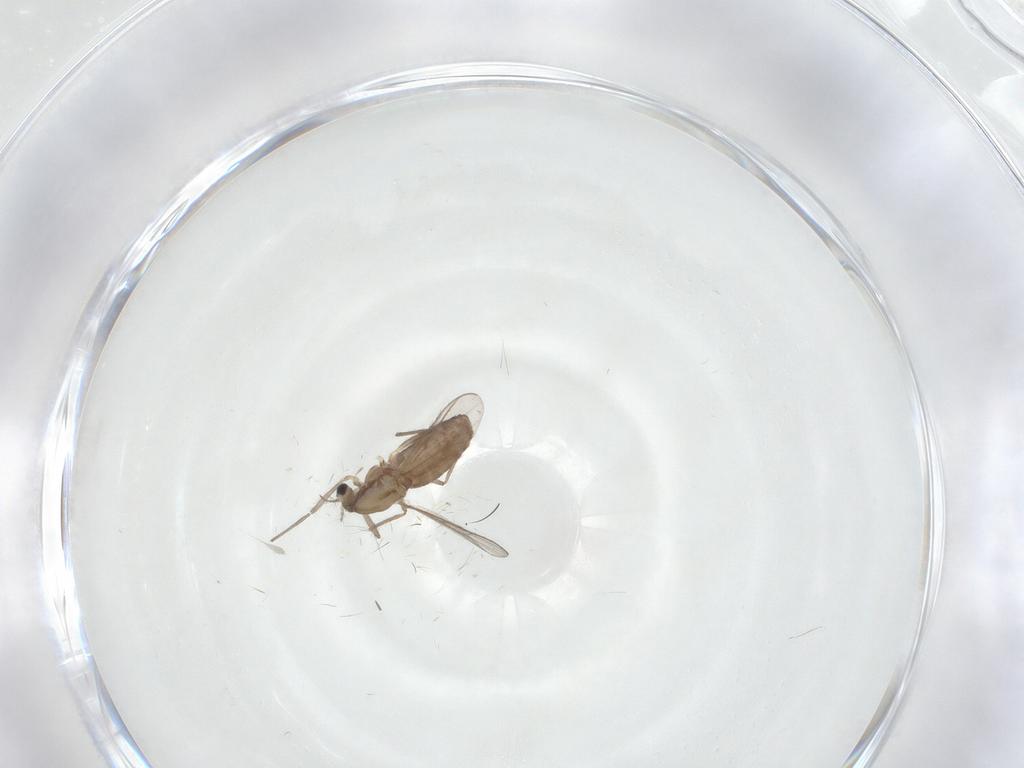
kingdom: Animalia
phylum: Arthropoda
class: Insecta
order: Diptera
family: Chironomidae
